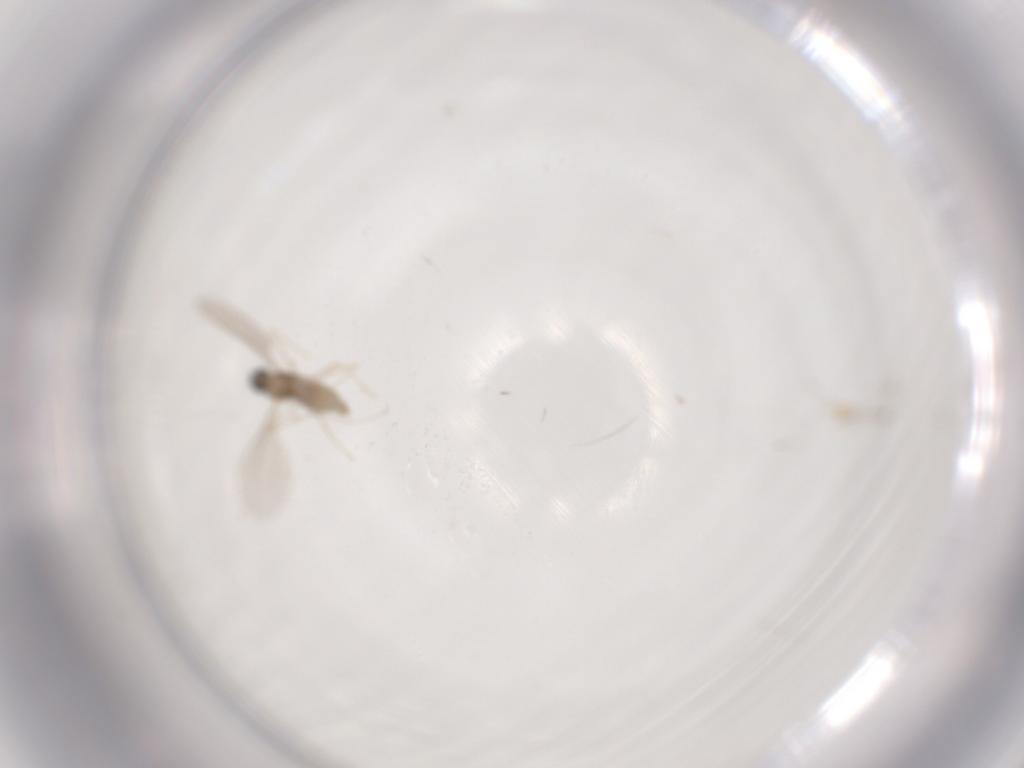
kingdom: Animalia
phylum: Arthropoda
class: Insecta
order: Diptera
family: Cecidomyiidae
